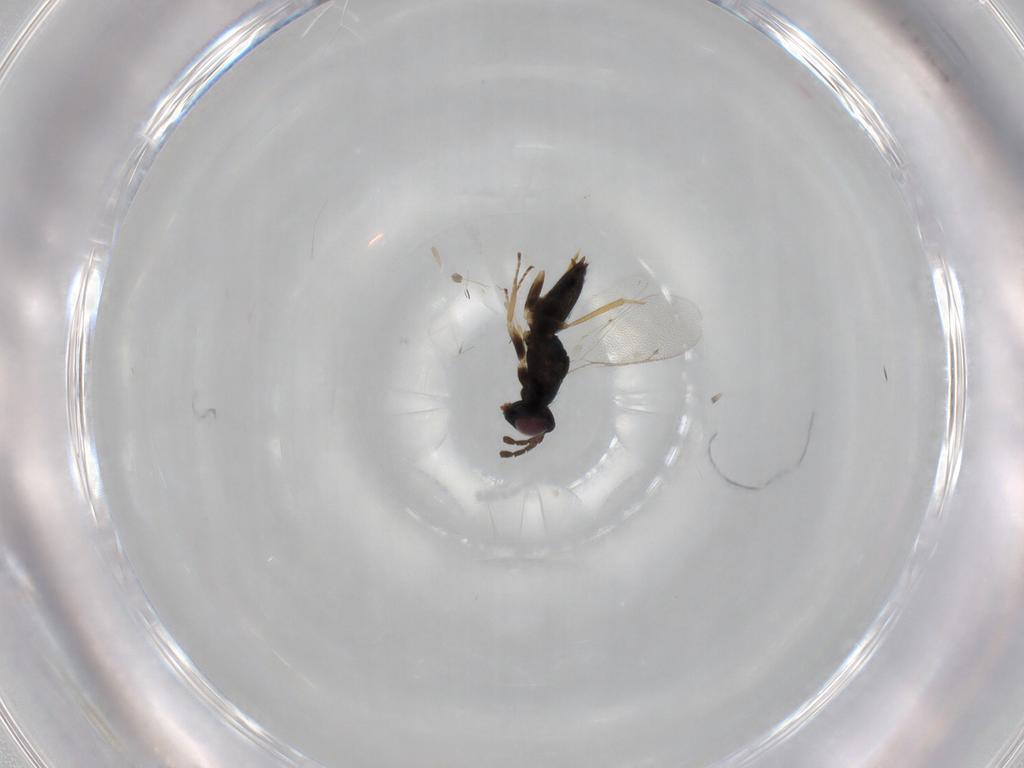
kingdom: Animalia
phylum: Arthropoda
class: Insecta
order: Hymenoptera
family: Eulophidae
